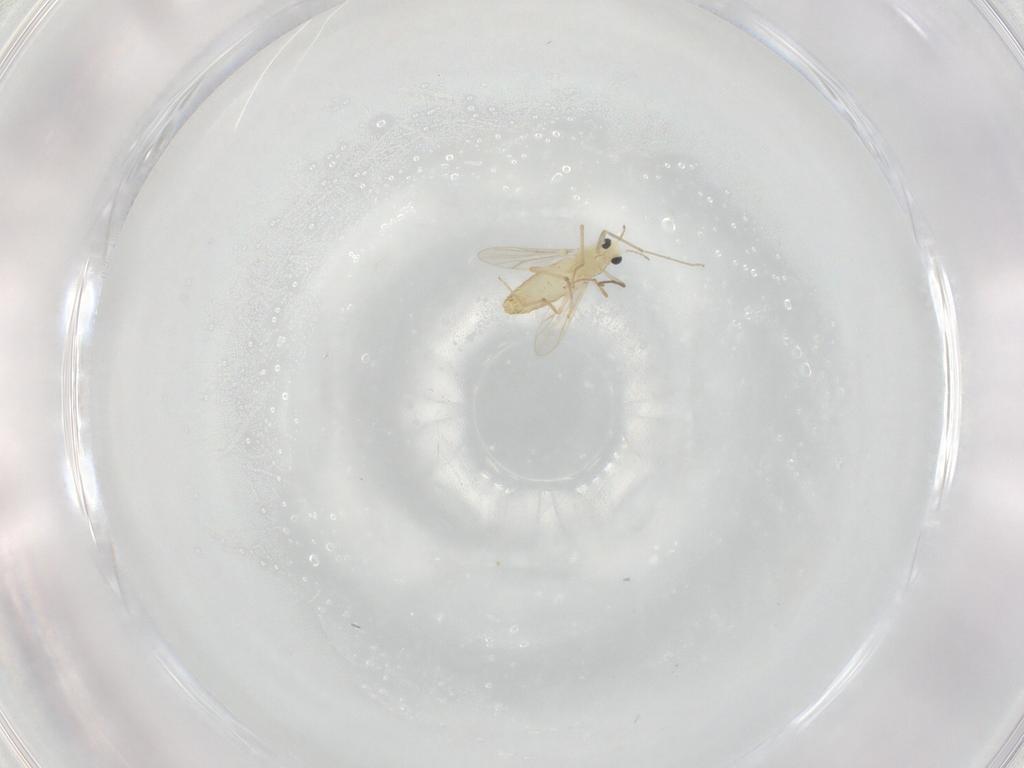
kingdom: Animalia
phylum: Arthropoda
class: Insecta
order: Diptera
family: Chironomidae
